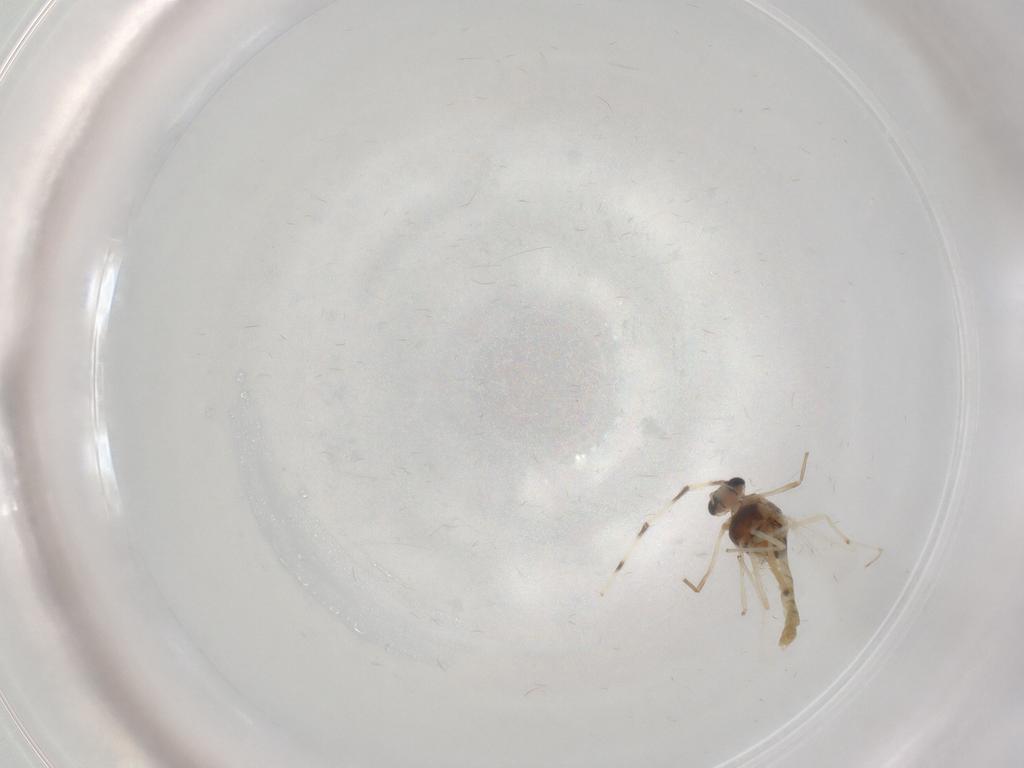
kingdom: Animalia
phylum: Arthropoda
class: Insecta
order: Diptera
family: Chironomidae
